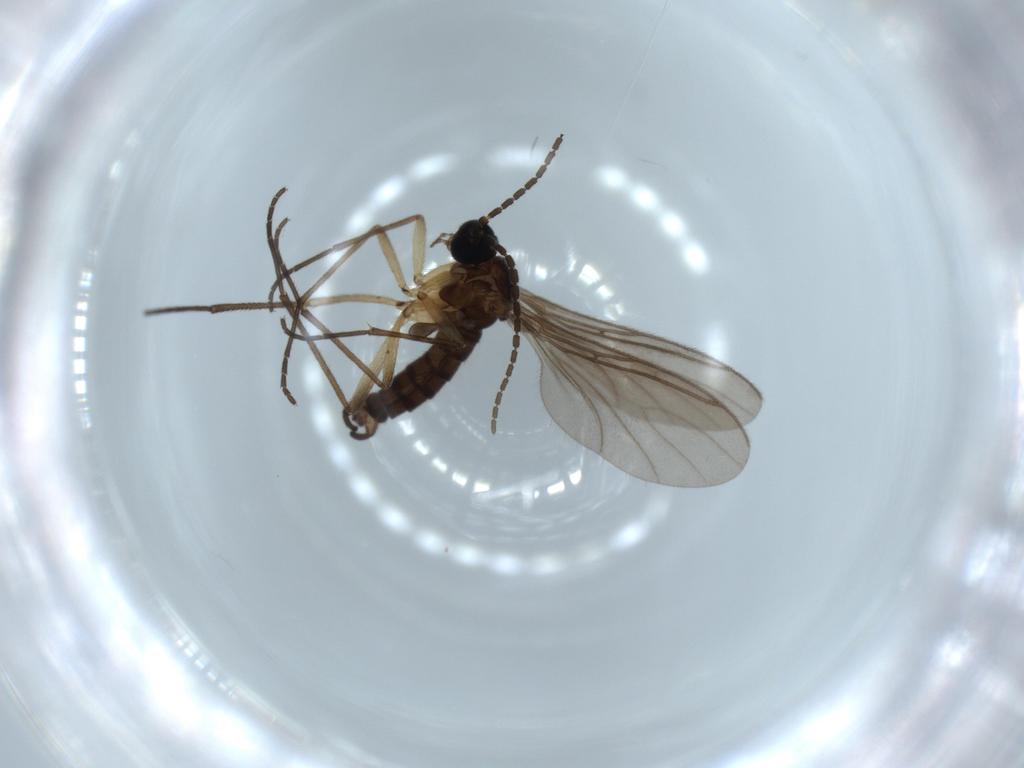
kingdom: Animalia
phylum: Arthropoda
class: Insecta
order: Diptera
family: Sciaridae
